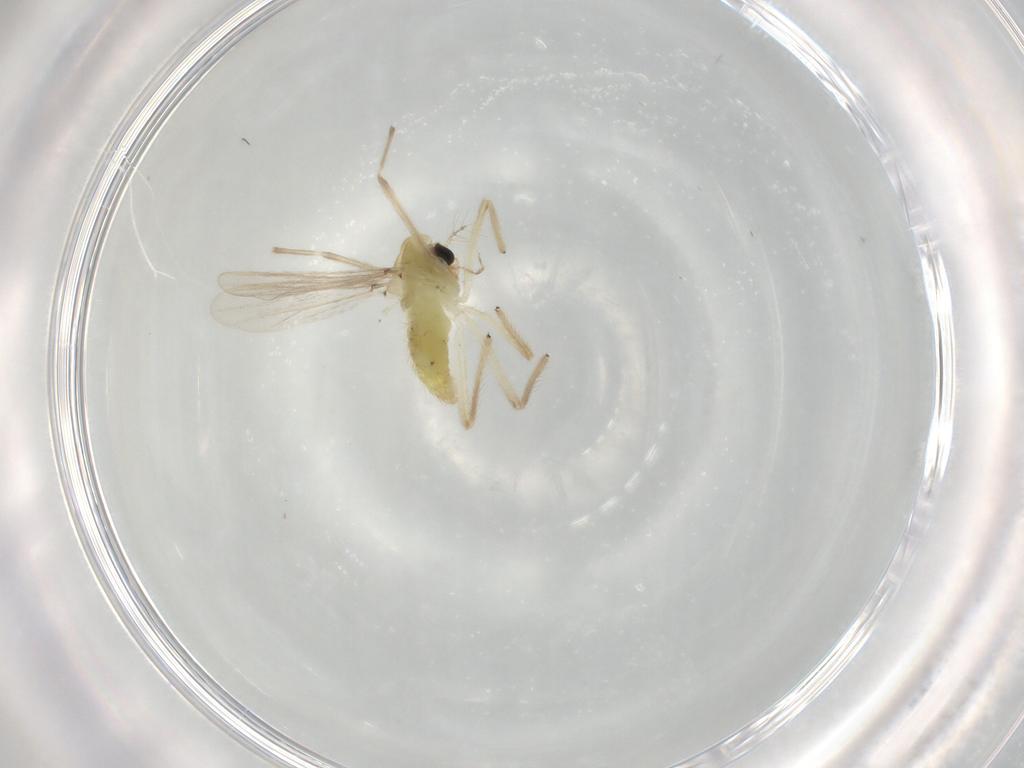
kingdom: Animalia
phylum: Arthropoda
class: Insecta
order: Diptera
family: Chironomidae
